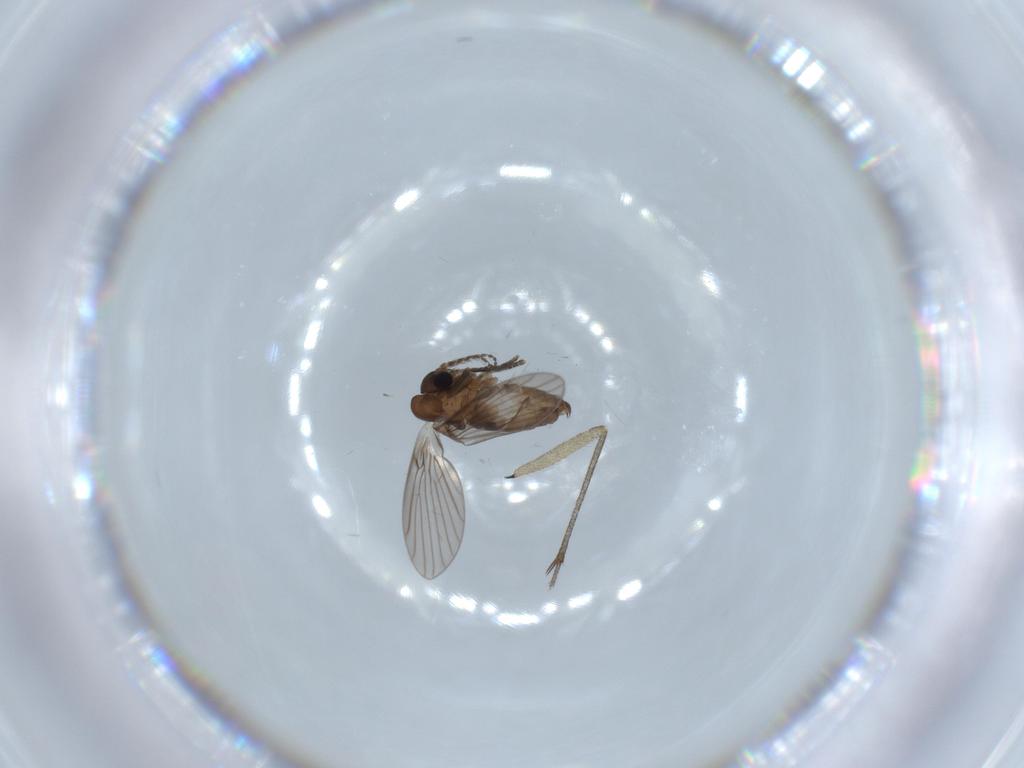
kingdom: Animalia
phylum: Arthropoda
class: Insecta
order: Diptera
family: Psychodidae
